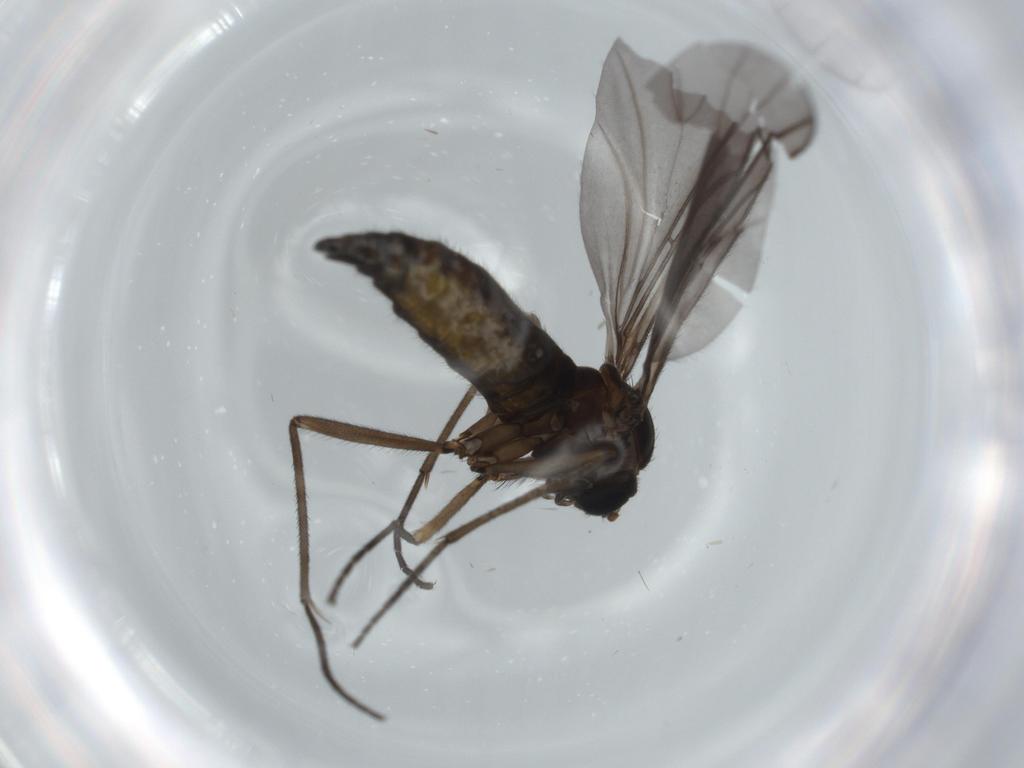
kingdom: Animalia
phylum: Arthropoda
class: Insecta
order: Diptera
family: Sciaridae
